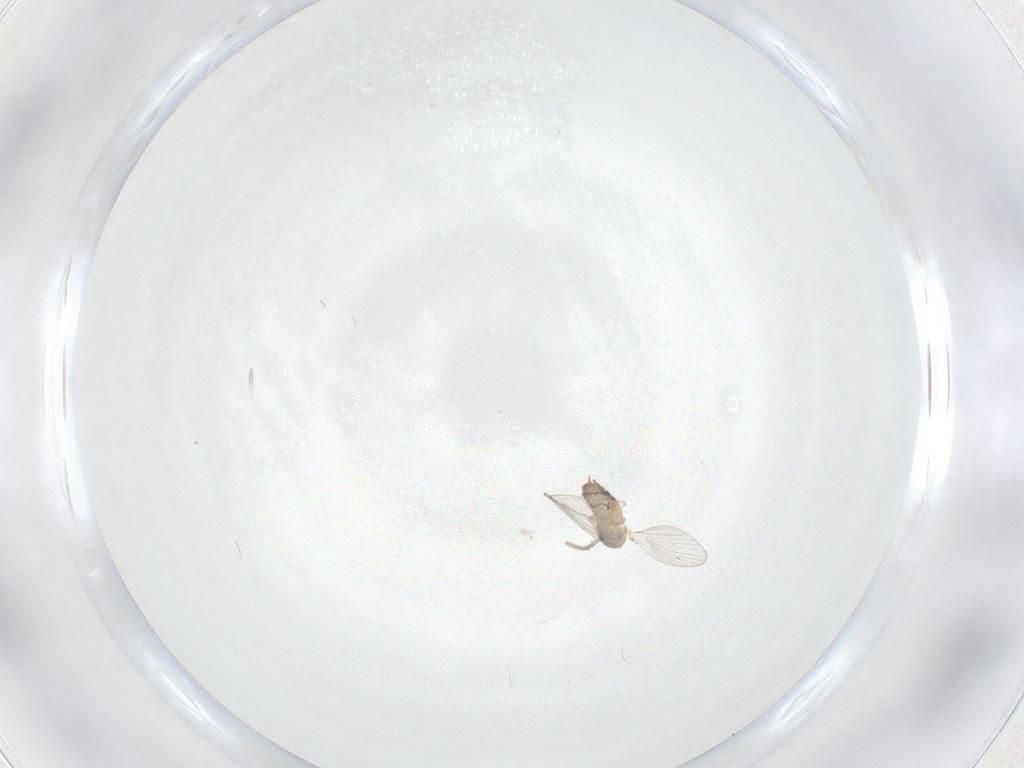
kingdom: Animalia
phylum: Arthropoda
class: Insecta
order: Diptera
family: Psychodidae
